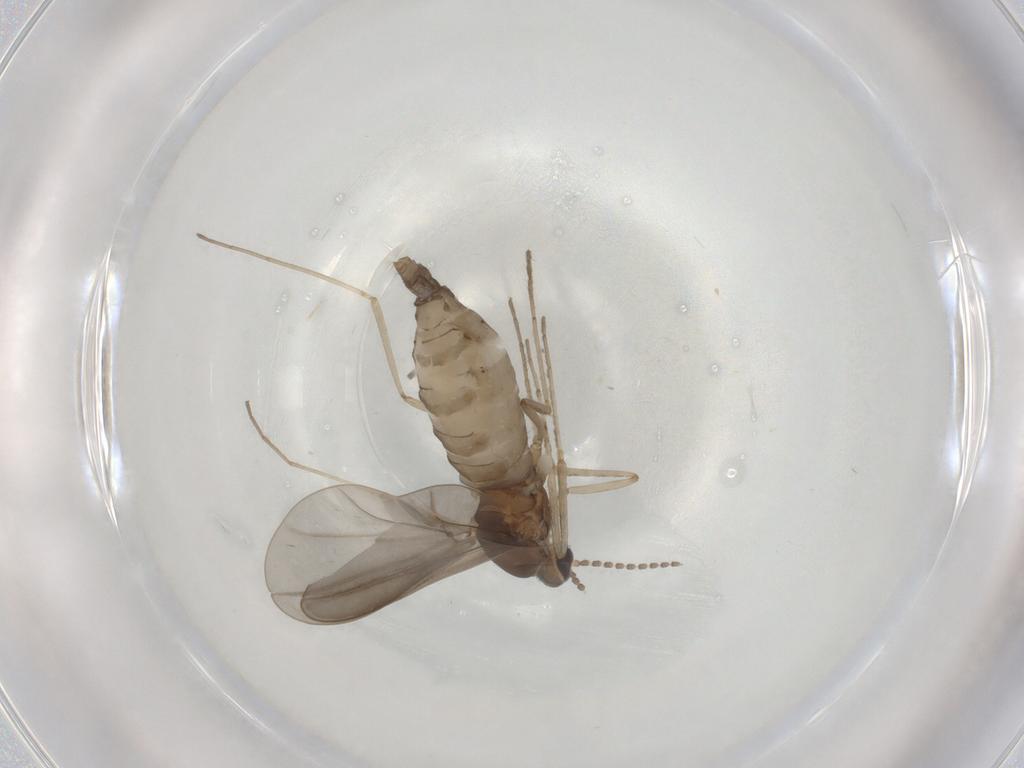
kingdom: Animalia
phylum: Arthropoda
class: Insecta
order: Diptera
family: Cecidomyiidae
